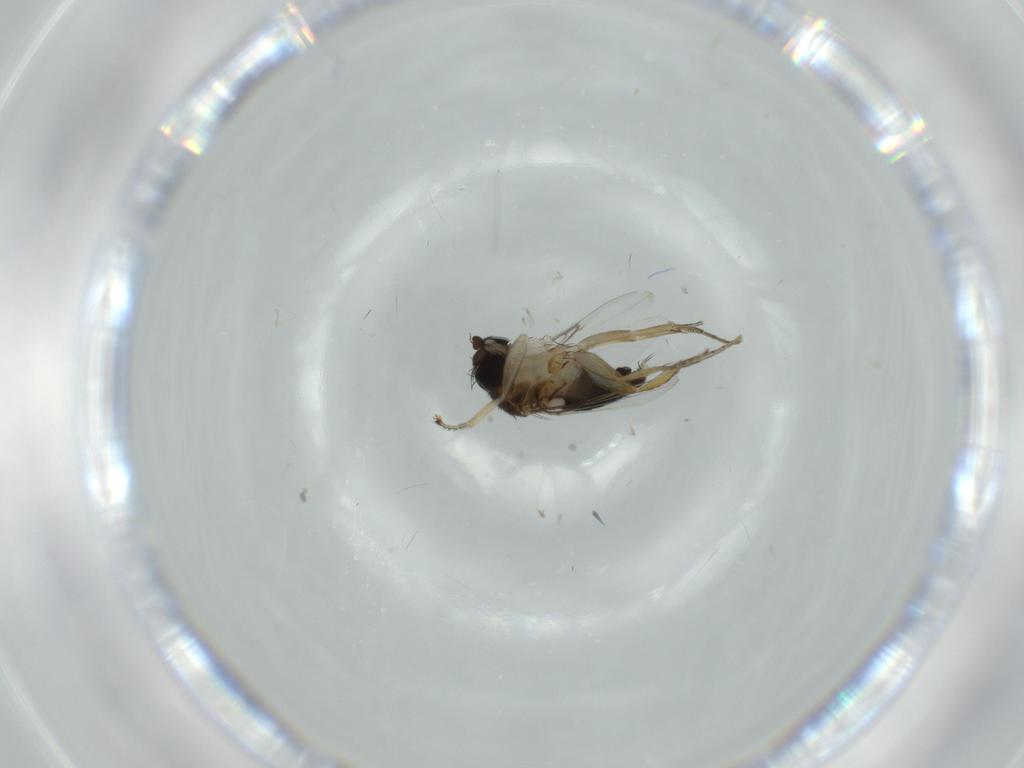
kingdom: Animalia
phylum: Arthropoda
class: Insecta
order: Diptera
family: Phoridae
